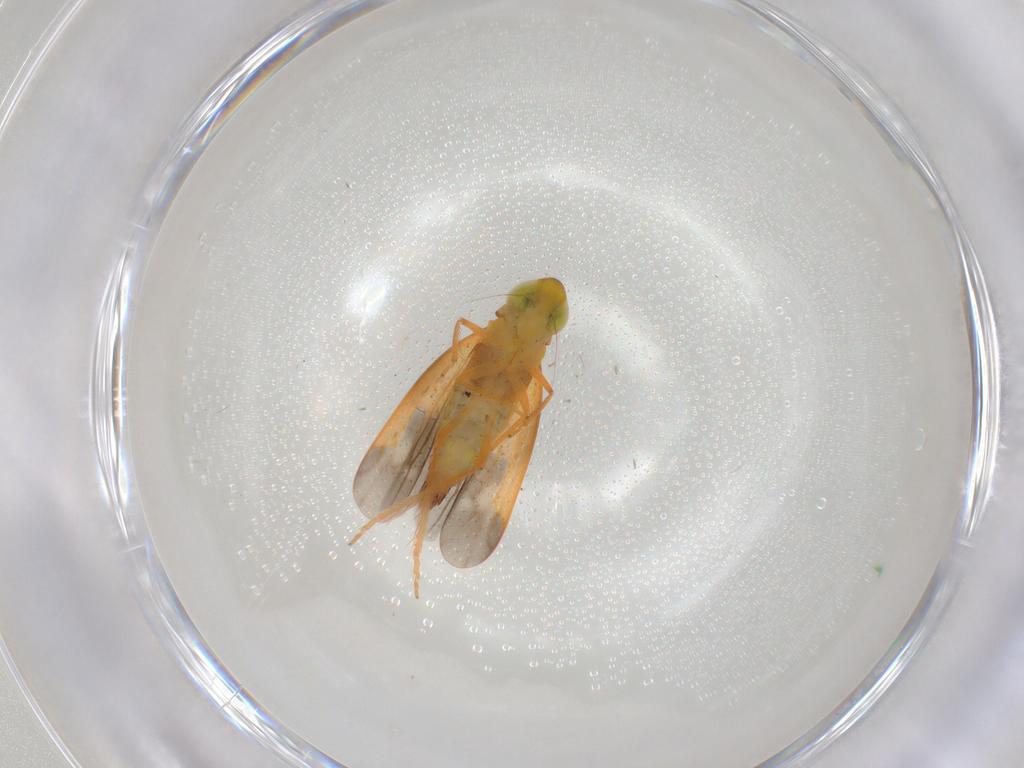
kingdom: Animalia
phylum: Arthropoda
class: Insecta
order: Hemiptera
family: Cicadellidae
